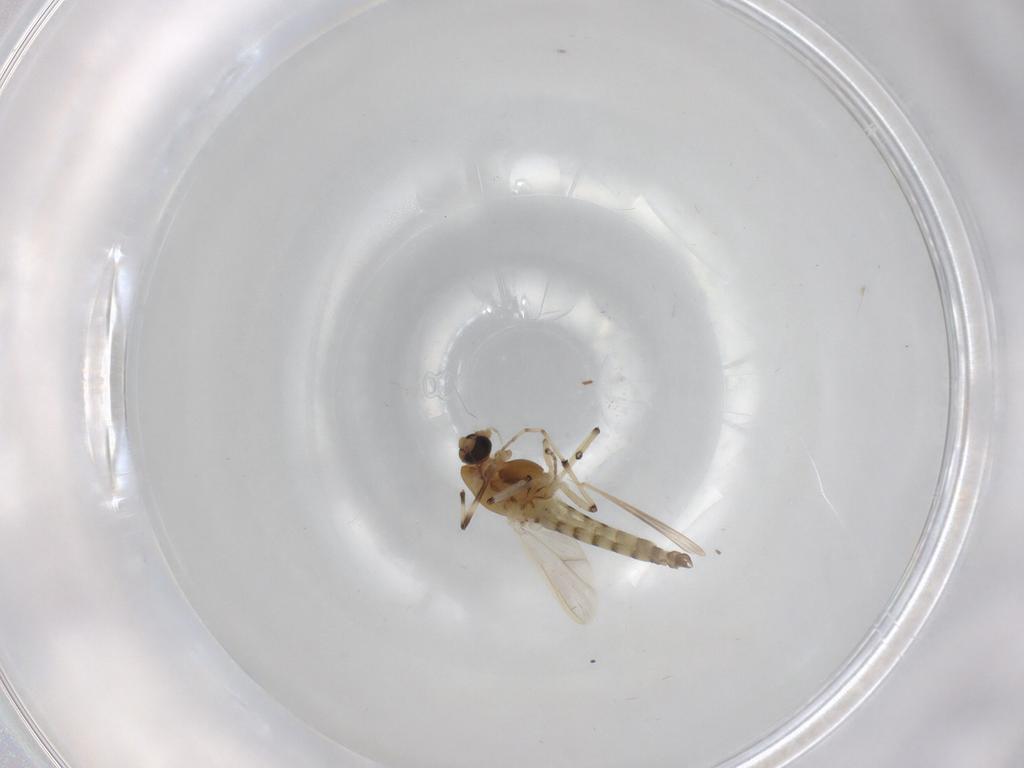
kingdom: Animalia
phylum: Arthropoda
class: Insecta
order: Diptera
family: Chironomidae
